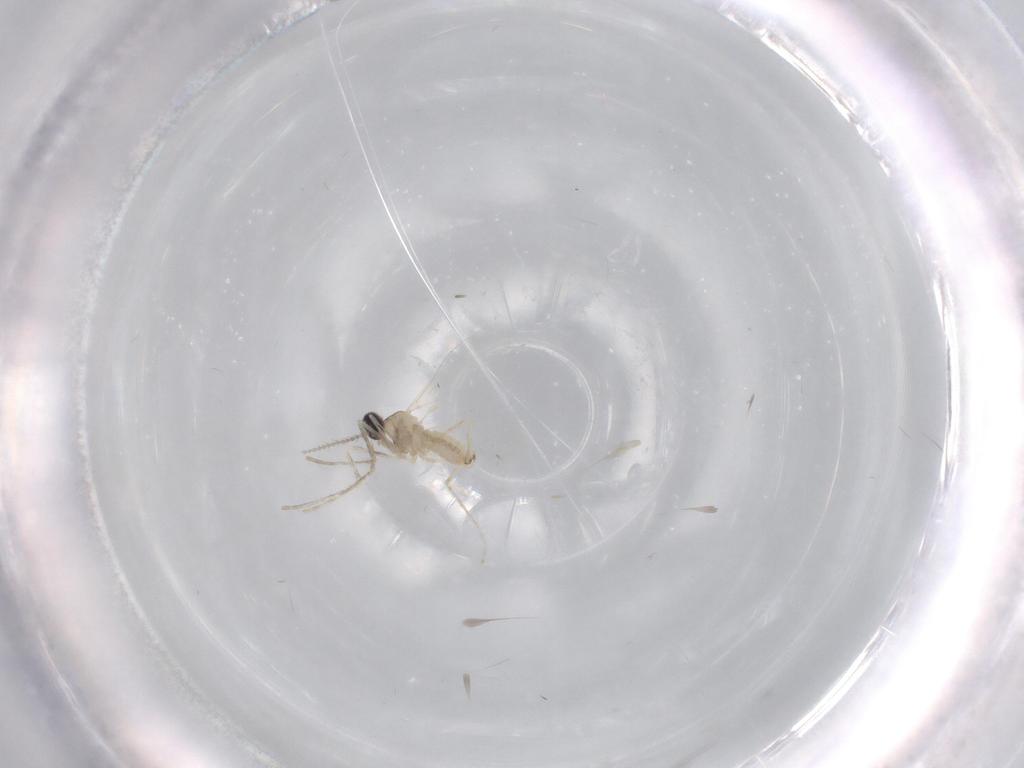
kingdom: Animalia
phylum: Arthropoda
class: Insecta
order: Diptera
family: Cecidomyiidae
